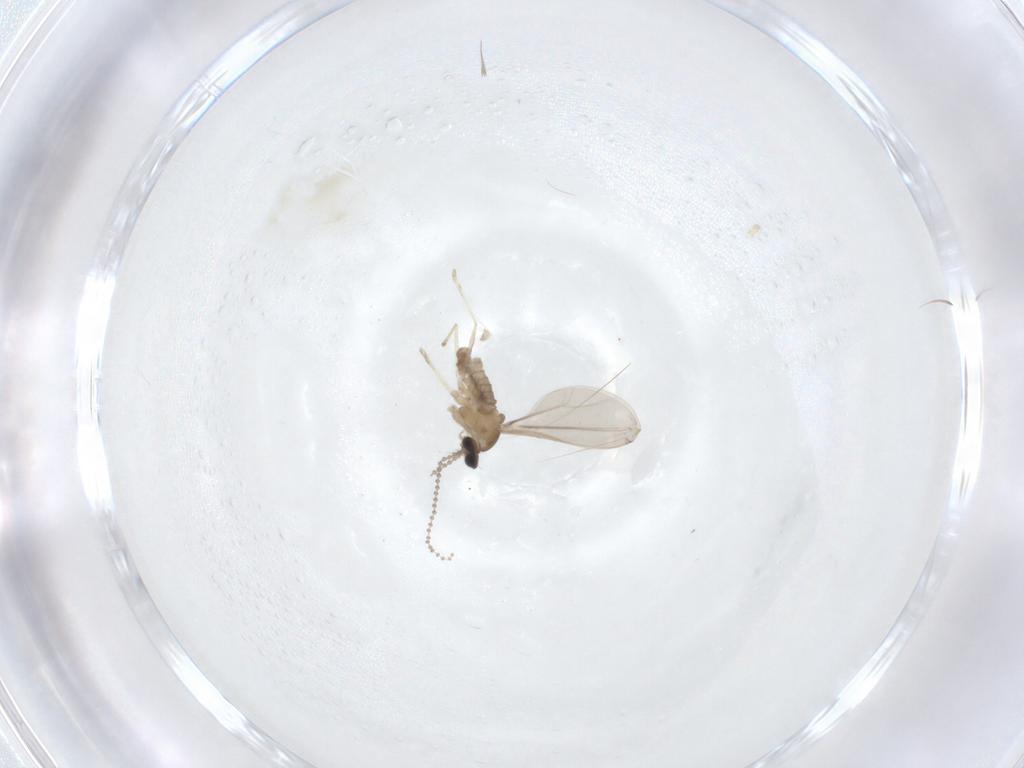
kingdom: Animalia
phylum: Arthropoda
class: Insecta
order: Diptera
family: Cecidomyiidae
